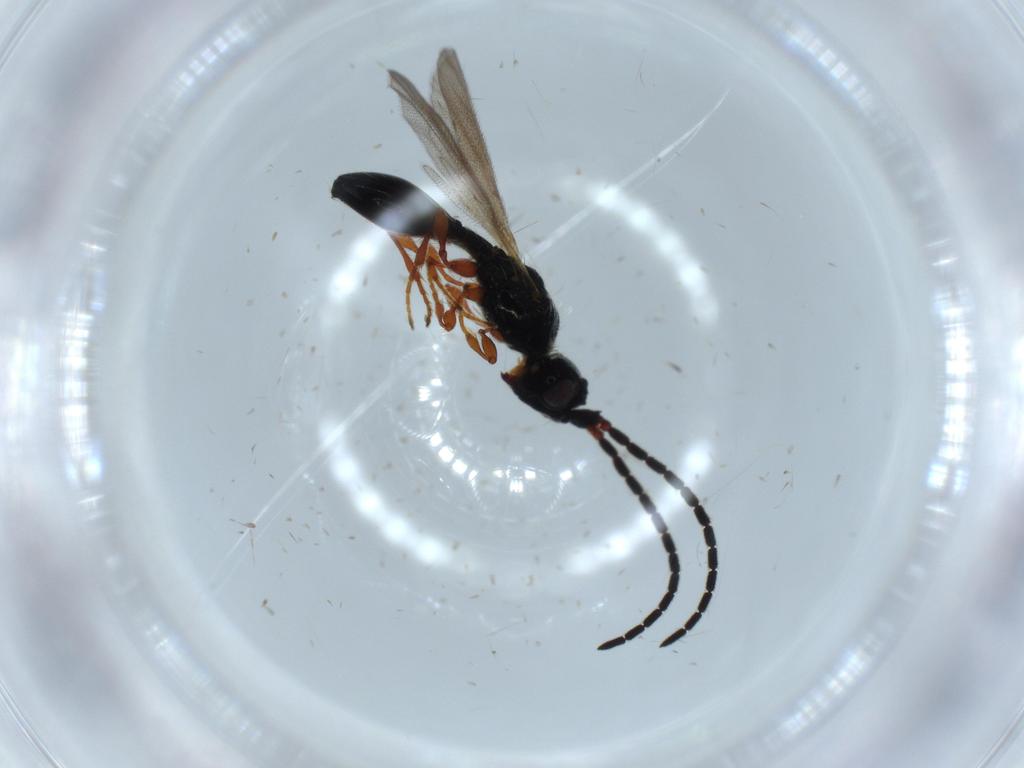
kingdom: Animalia
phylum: Arthropoda
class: Insecta
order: Hymenoptera
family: Diapriidae
